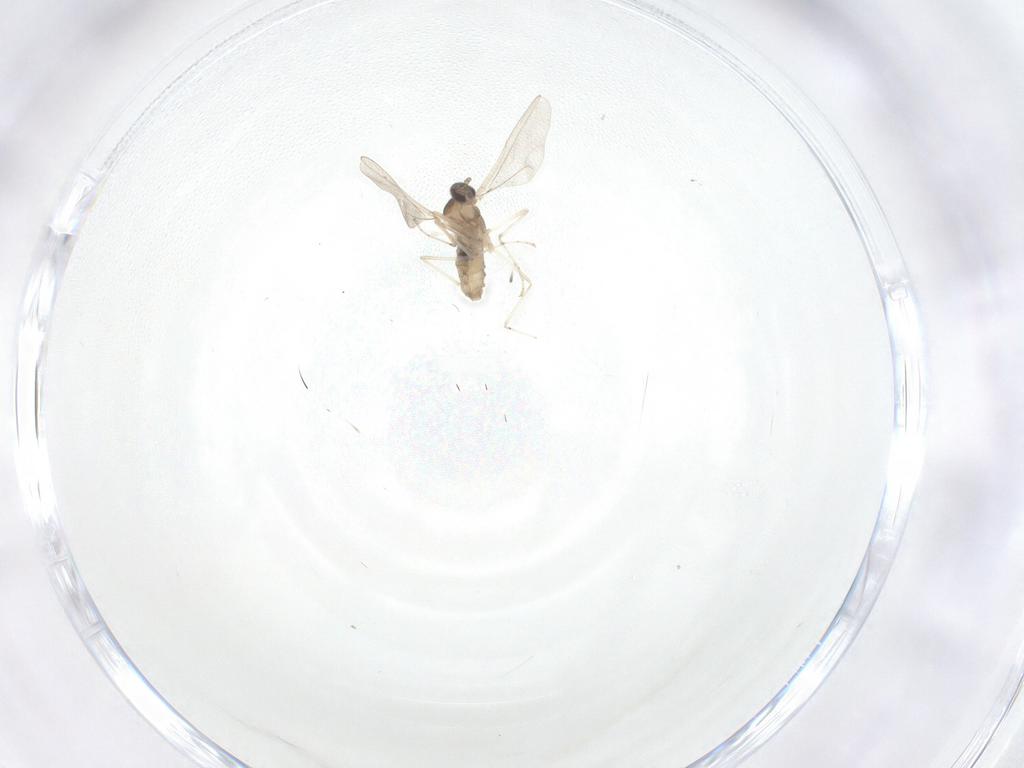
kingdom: Animalia
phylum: Arthropoda
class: Insecta
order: Diptera
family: Cecidomyiidae
